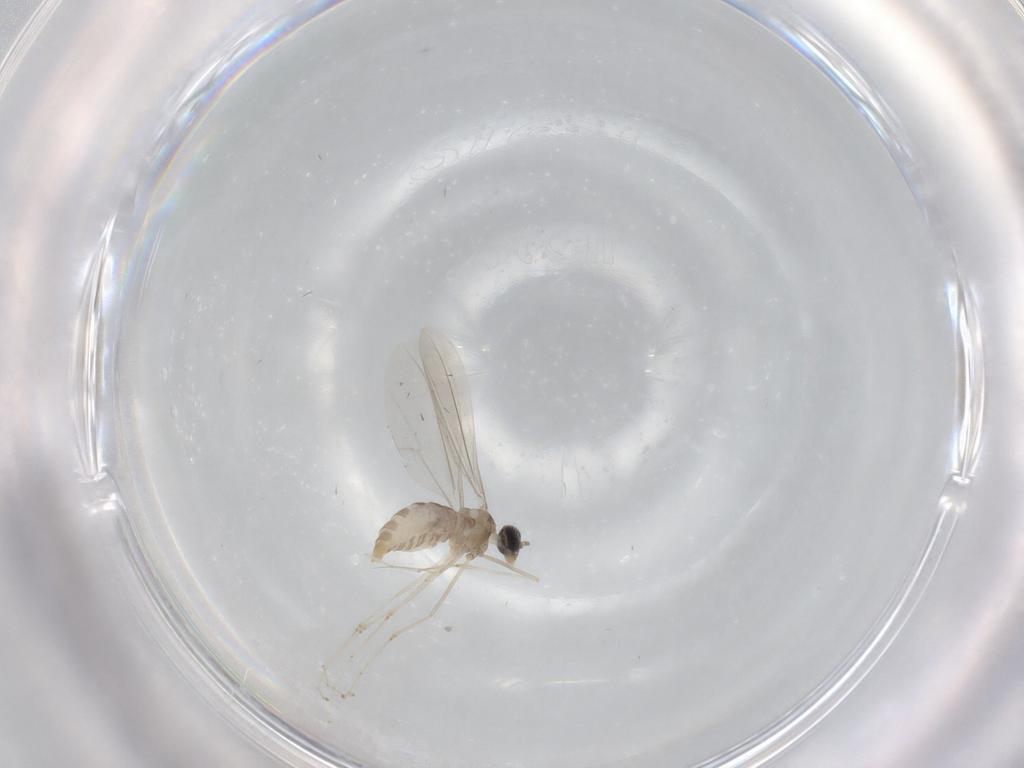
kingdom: Animalia
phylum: Arthropoda
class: Insecta
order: Diptera
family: Cecidomyiidae
